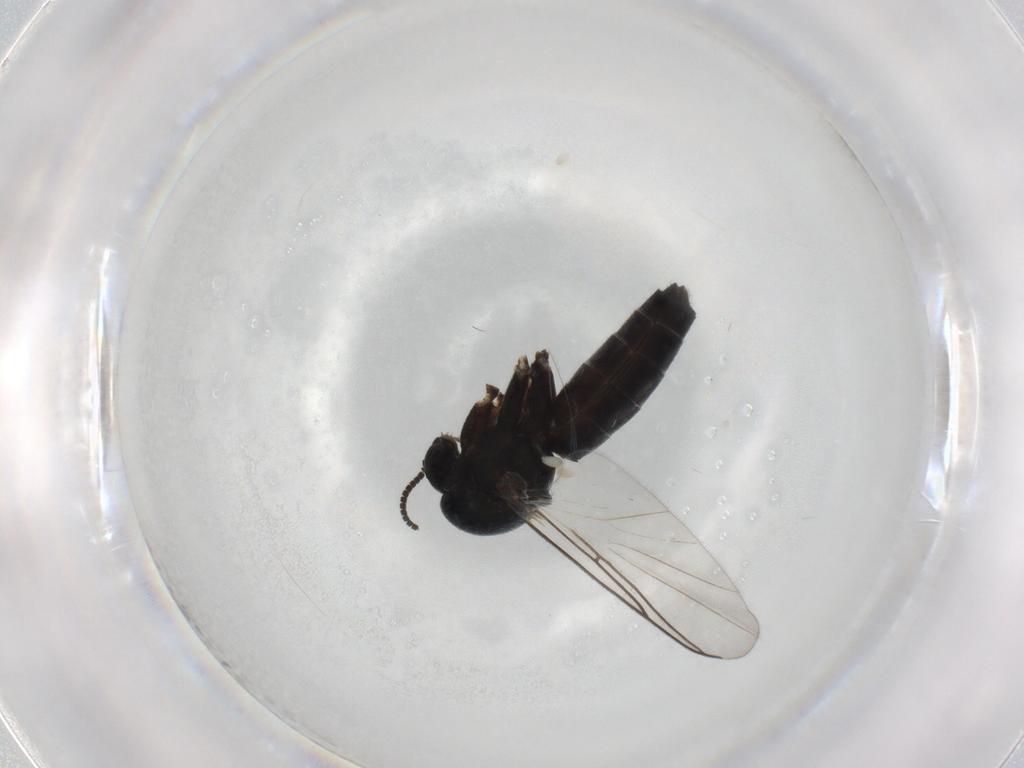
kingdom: Animalia
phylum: Arthropoda
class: Insecta
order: Diptera
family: Mycetophilidae
